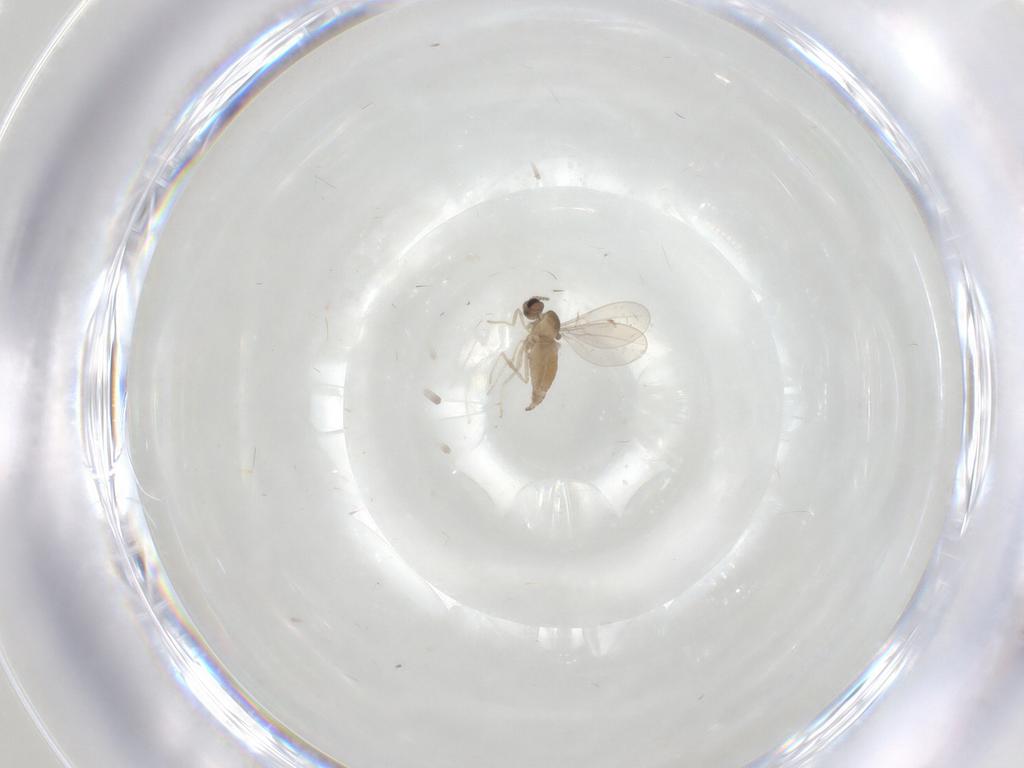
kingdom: Animalia
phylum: Arthropoda
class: Insecta
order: Diptera
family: Cecidomyiidae
